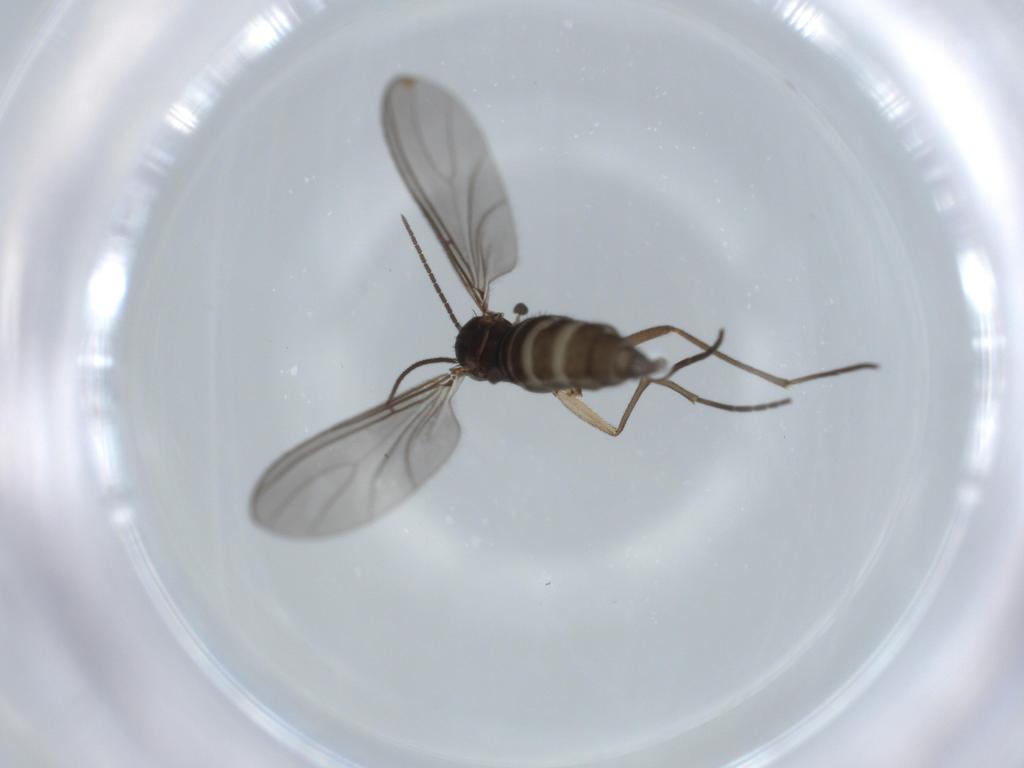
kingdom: Animalia
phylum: Arthropoda
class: Insecta
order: Diptera
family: Sciaridae
